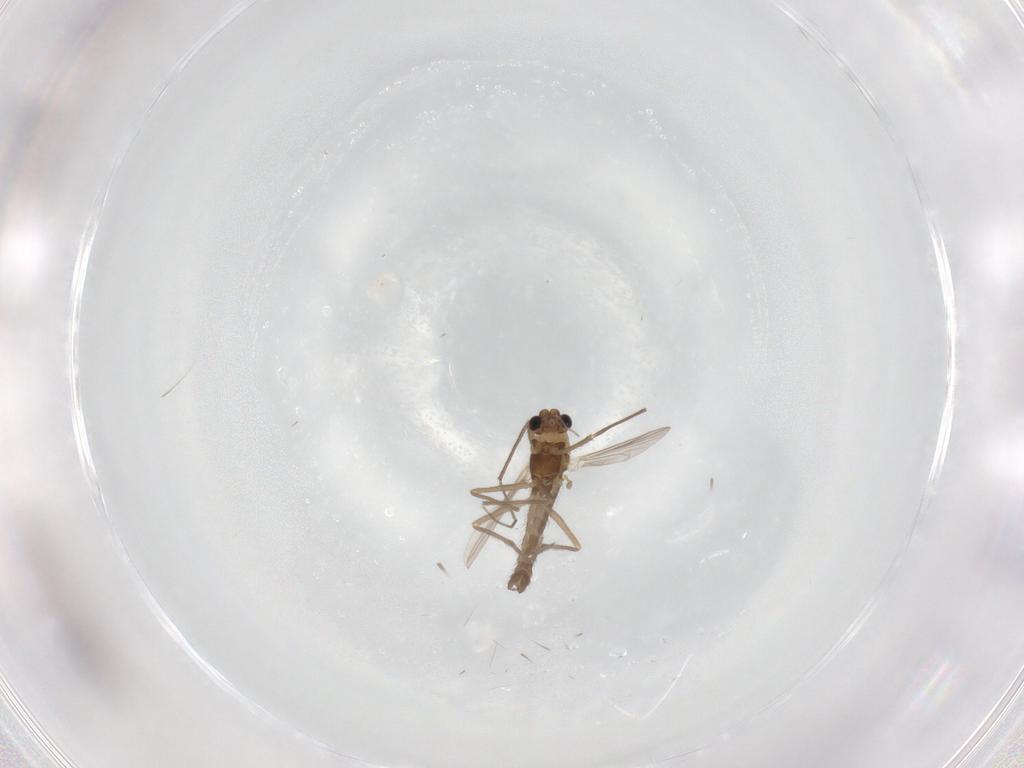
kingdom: Animalia
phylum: Arthropoda
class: Insecta
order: Diptera
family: Chironomidae
